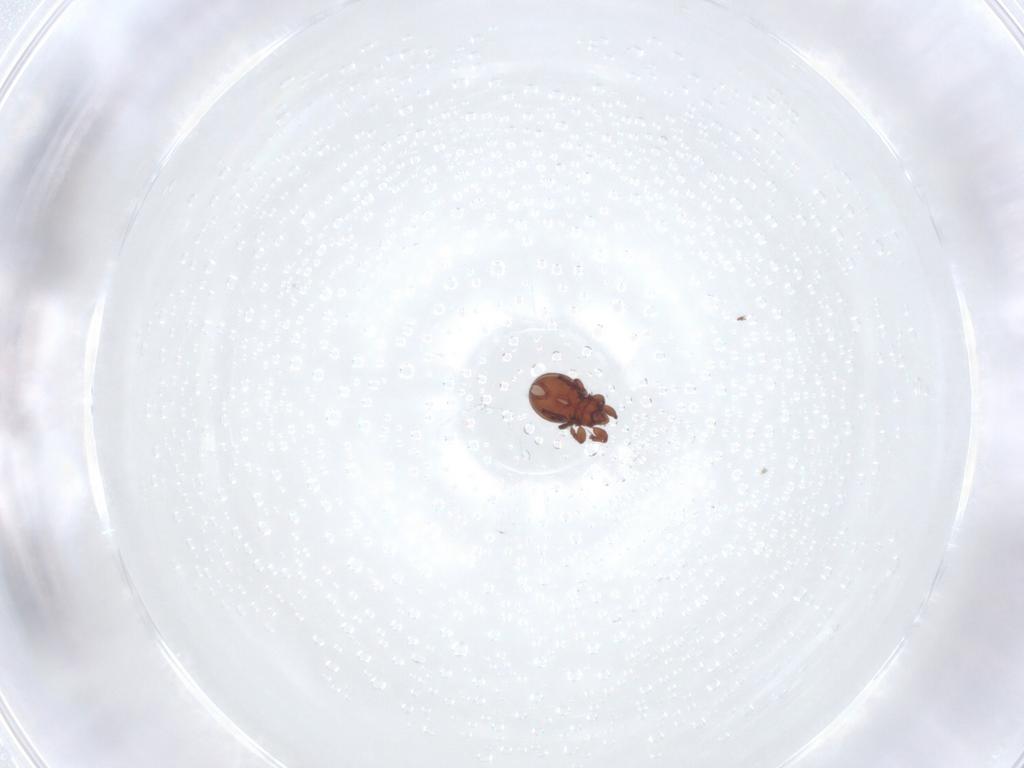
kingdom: Animalia
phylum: Arthropoda
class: Arachnida
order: Sarcoptiformes
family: Eremaeidae
